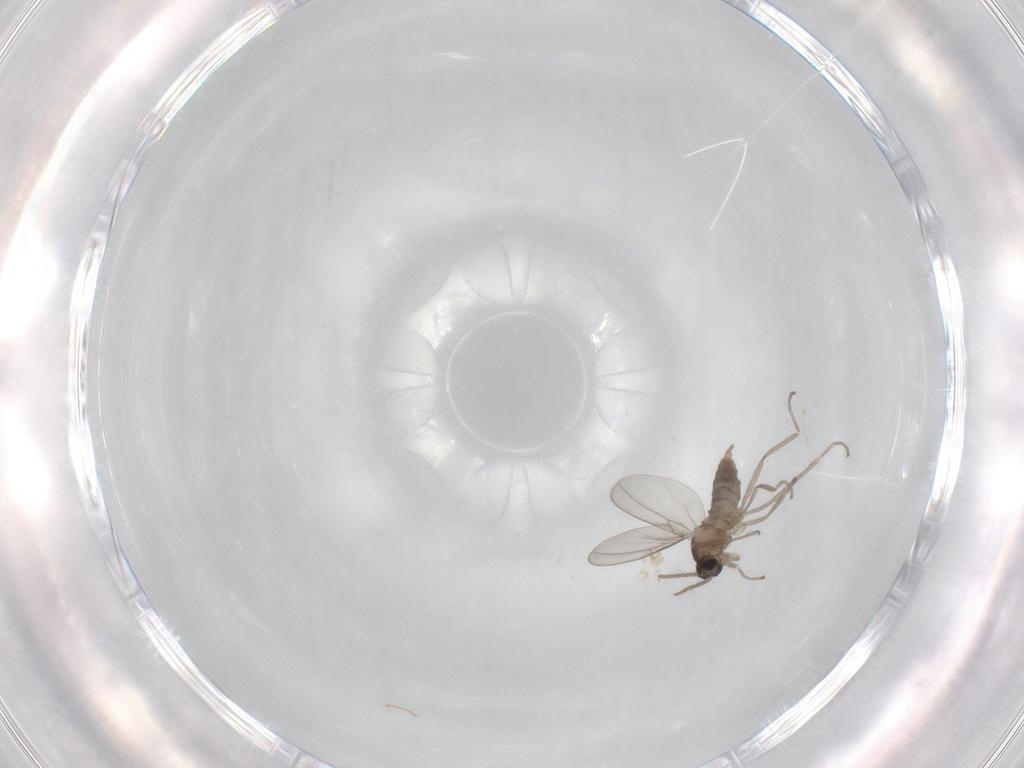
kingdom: Animalia
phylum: Arthropoda
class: Insecta
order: Diptera
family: Cecidomyiidae
